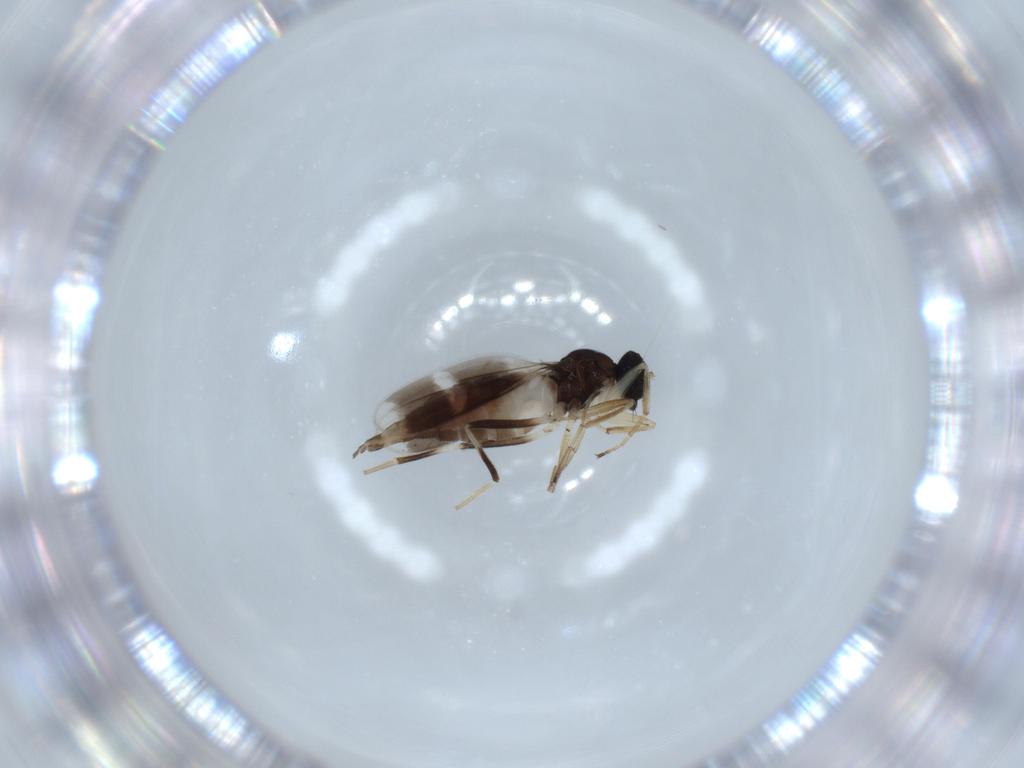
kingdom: Animalia
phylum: Arthropoda
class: Insecta
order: Diptera
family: Hybotidae
